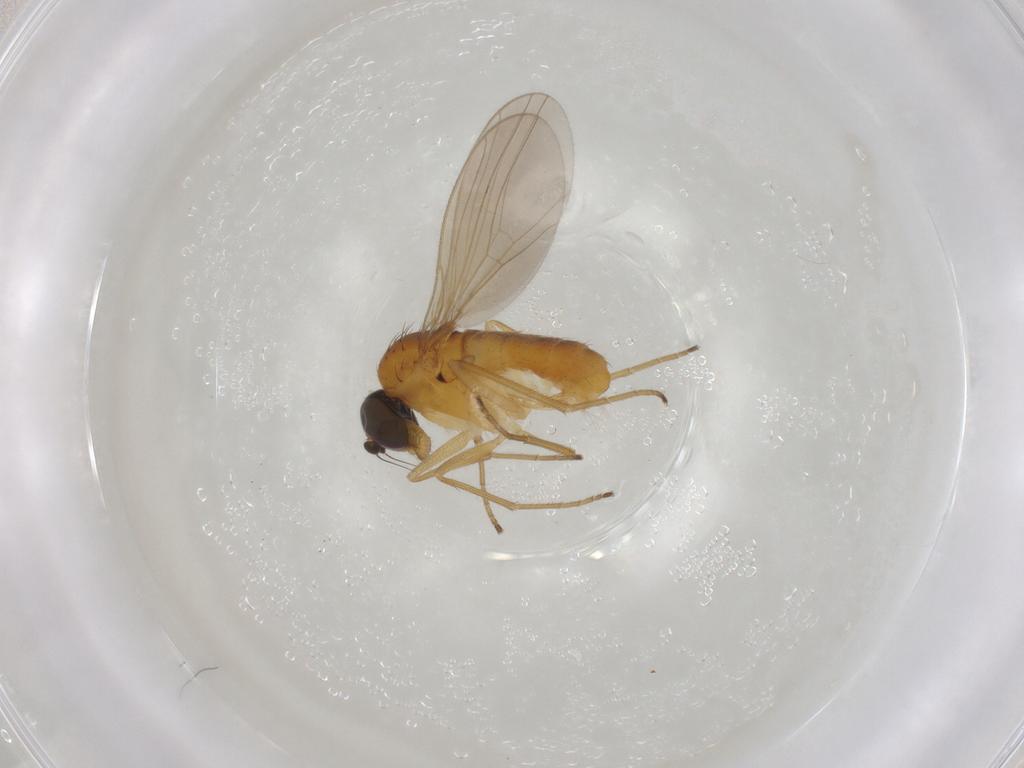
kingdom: Animalia
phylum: Arthropoda
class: Insecta
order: Diptera
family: Dolichopodidae
